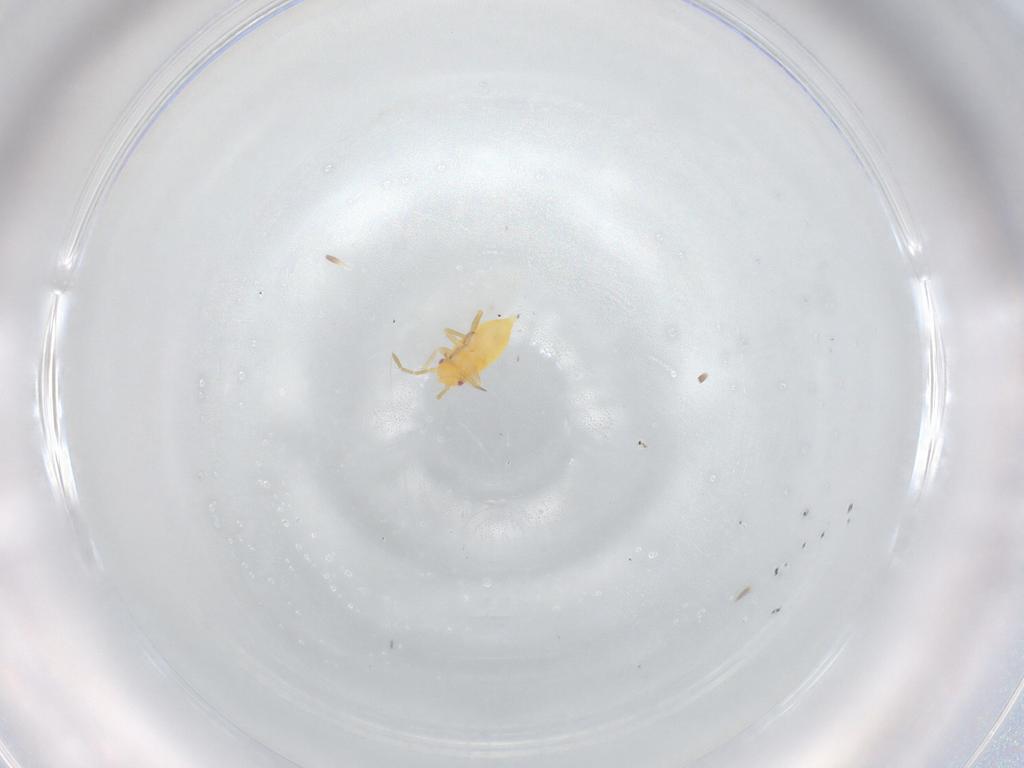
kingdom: Animalia
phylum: Arthropoda
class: Insecta
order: Hemiptera
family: Miridae
